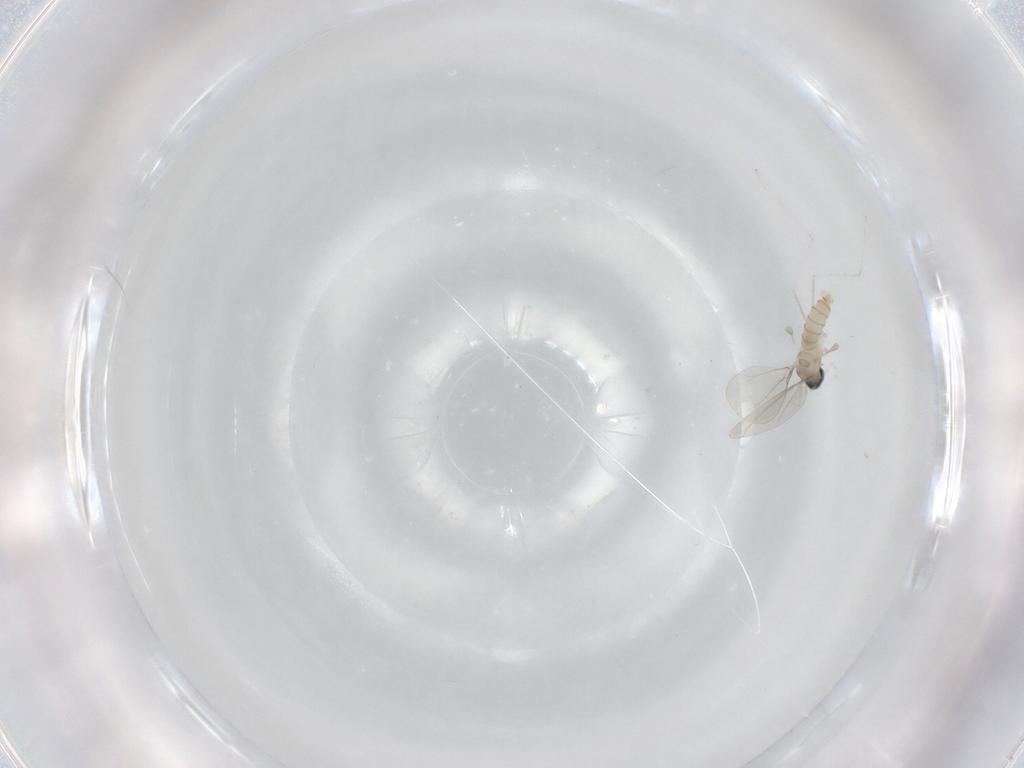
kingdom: Animalia
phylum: Arthropoda
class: Insecta
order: Diptera
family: Cecidomyiidae
